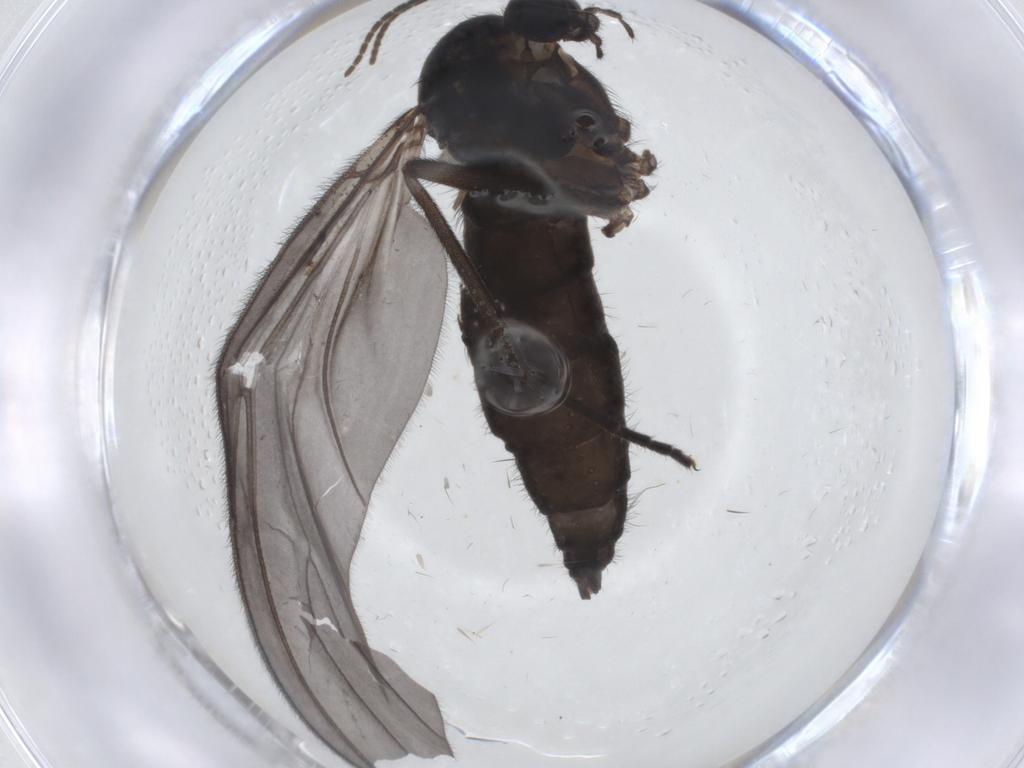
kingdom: Animalia
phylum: Arthropoda
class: Insecta
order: Diptera
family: Sciaridae
